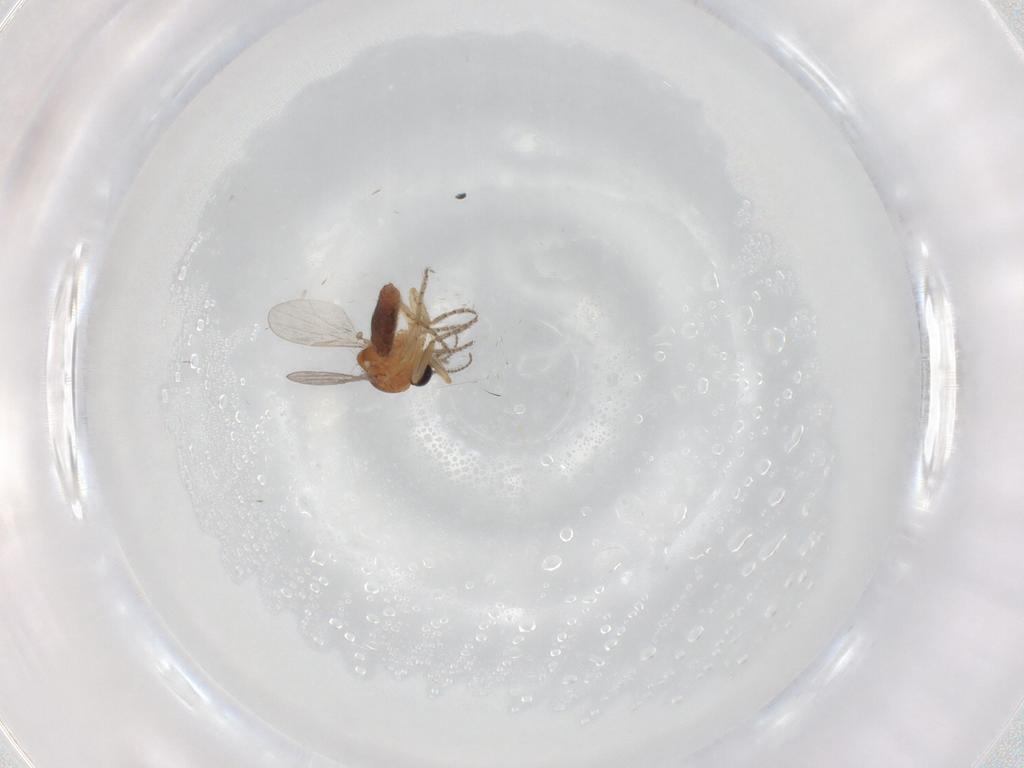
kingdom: Animalia
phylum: Arthropoda
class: Insecta
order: Diptera
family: Ceratopogonidae
